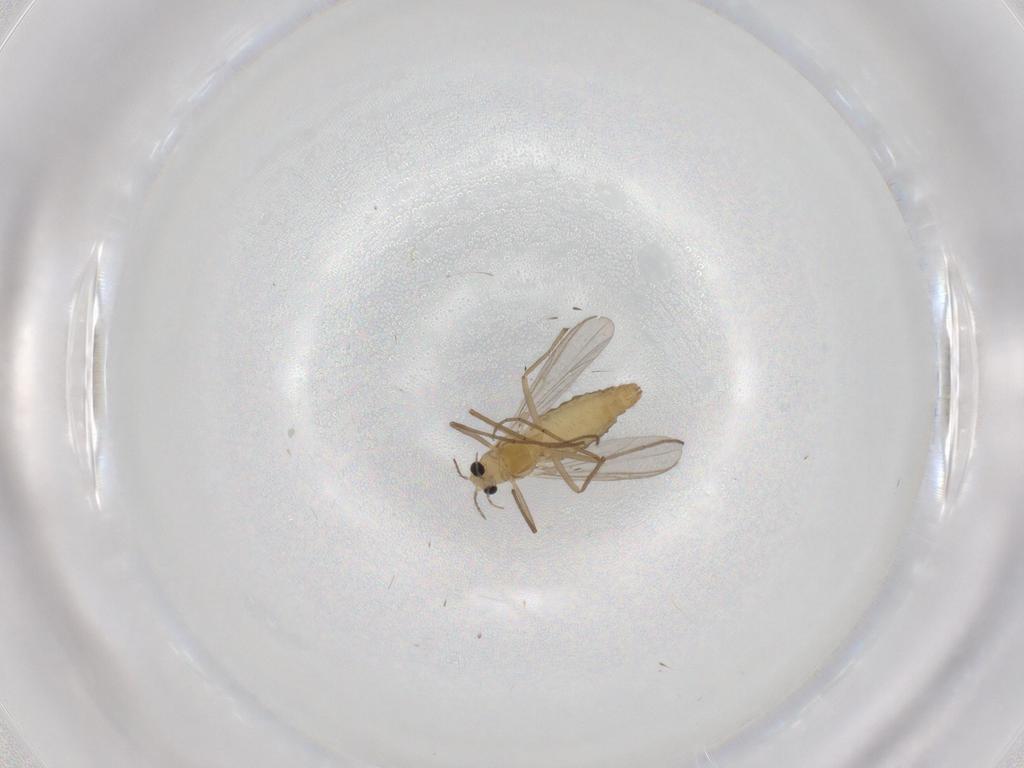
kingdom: Animalia
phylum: Arthropoda
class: Insecta
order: Diptera
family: Chironomidae
